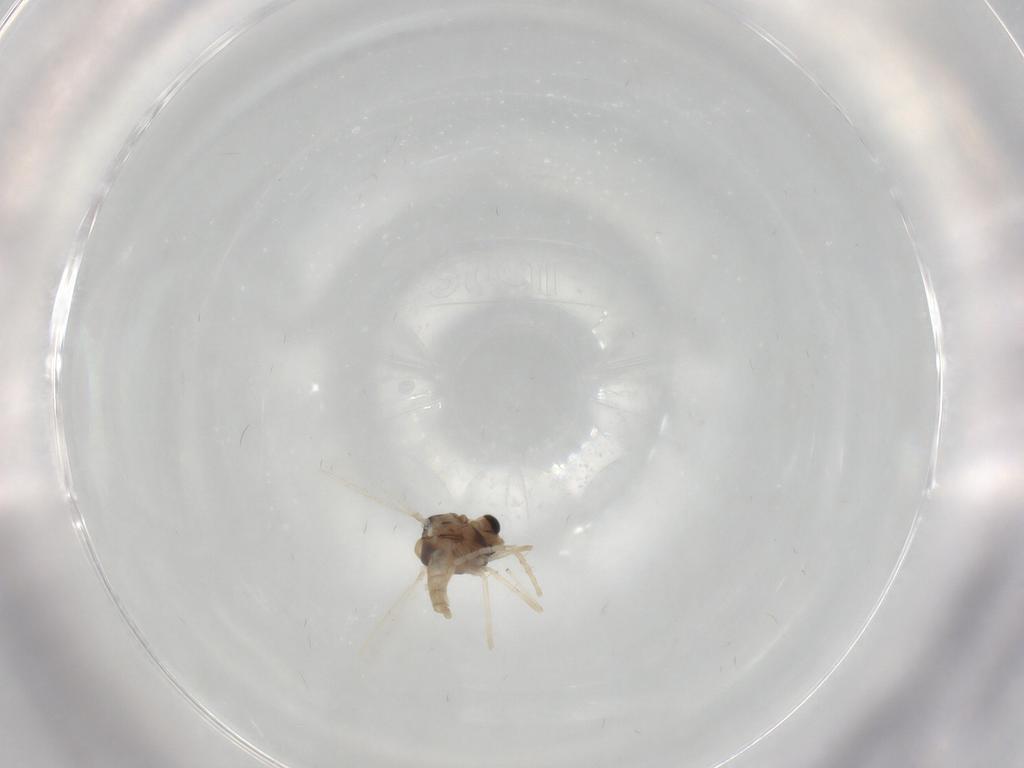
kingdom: Animalia
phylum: Arthropoda
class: Insecta
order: Diptera
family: Chironomidae
